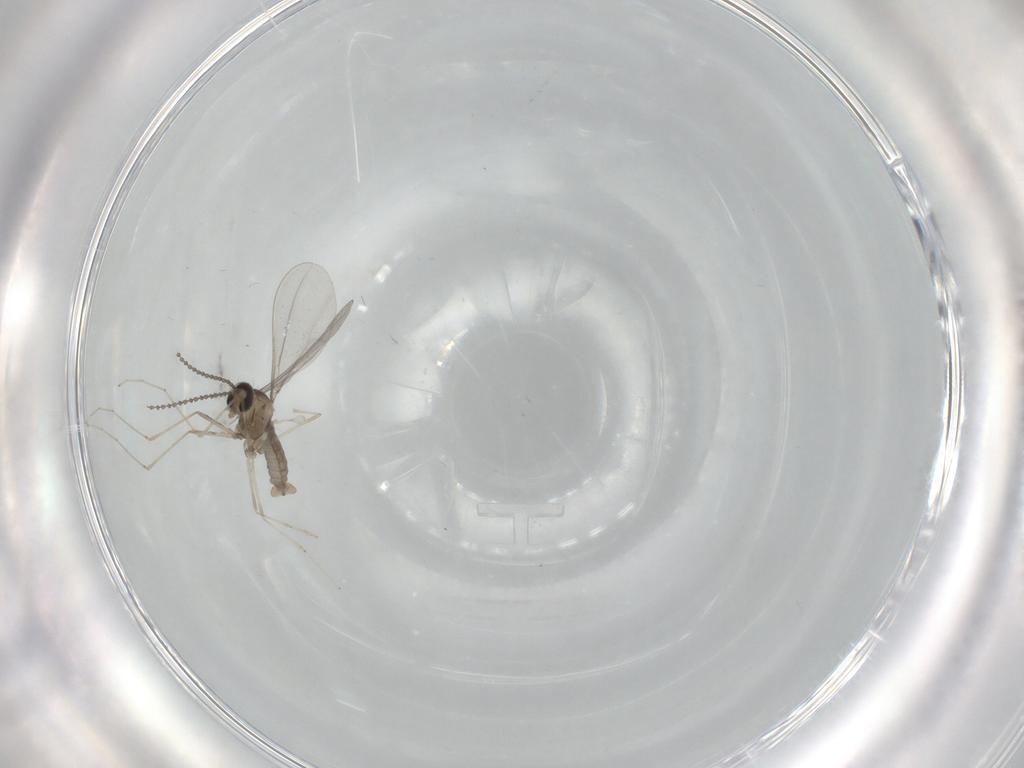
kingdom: Animalia
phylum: Arthropoda
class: Insecta
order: Diptera
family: Cecidomyiidae
